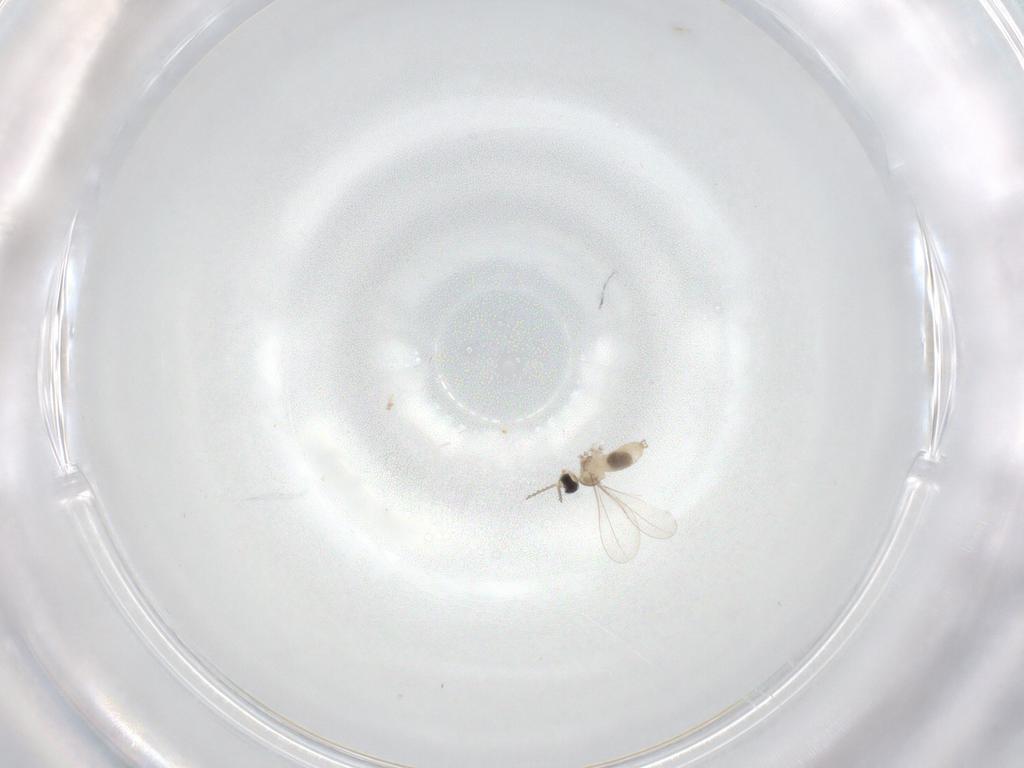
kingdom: Animalia
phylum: Arthropoda
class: Insecta
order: Diptera
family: Cecidomyiidae
